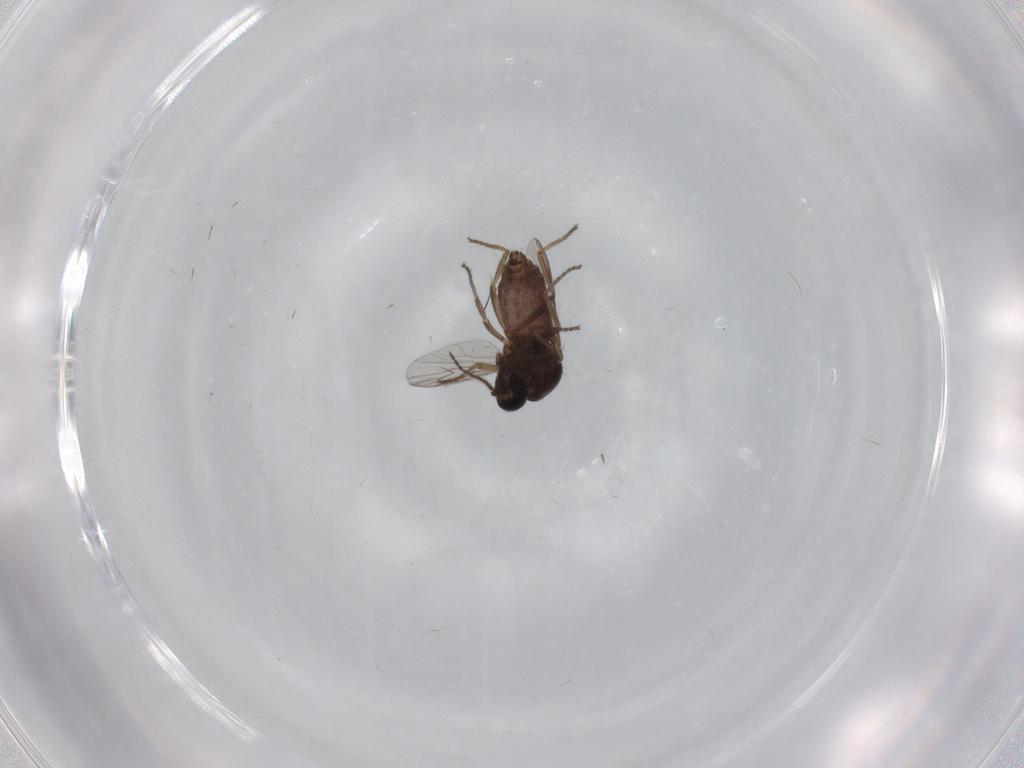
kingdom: Animalia
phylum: Arthropoda
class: Insecta
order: Diptera
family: Ceratopogonidae
